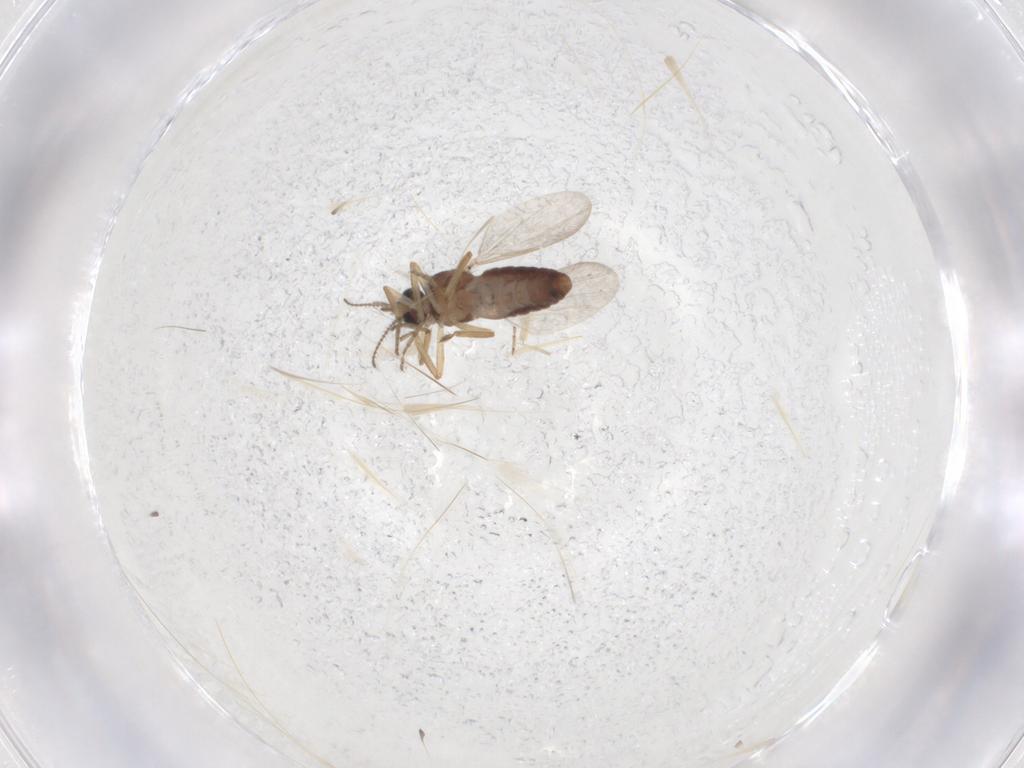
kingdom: Animalia
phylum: Arthropoda
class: Insecta
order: Diptera
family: Ceratopogonidae
